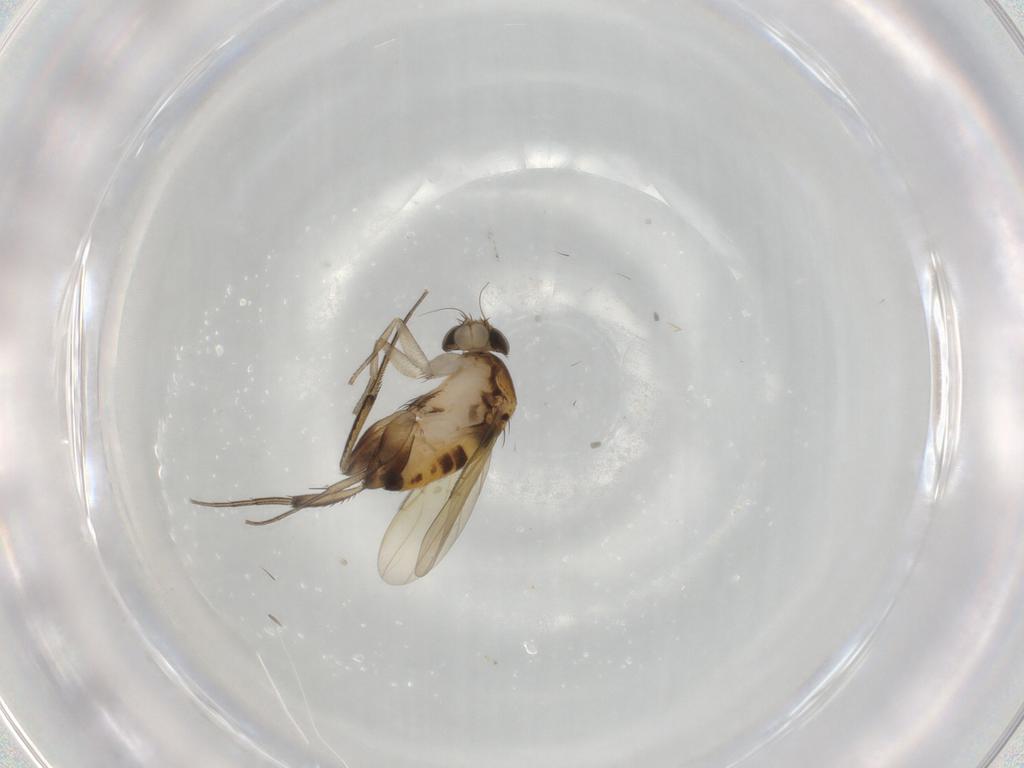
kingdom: Animalia
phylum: Arthropoda
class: Insecta
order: Diptera
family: Phoridae
